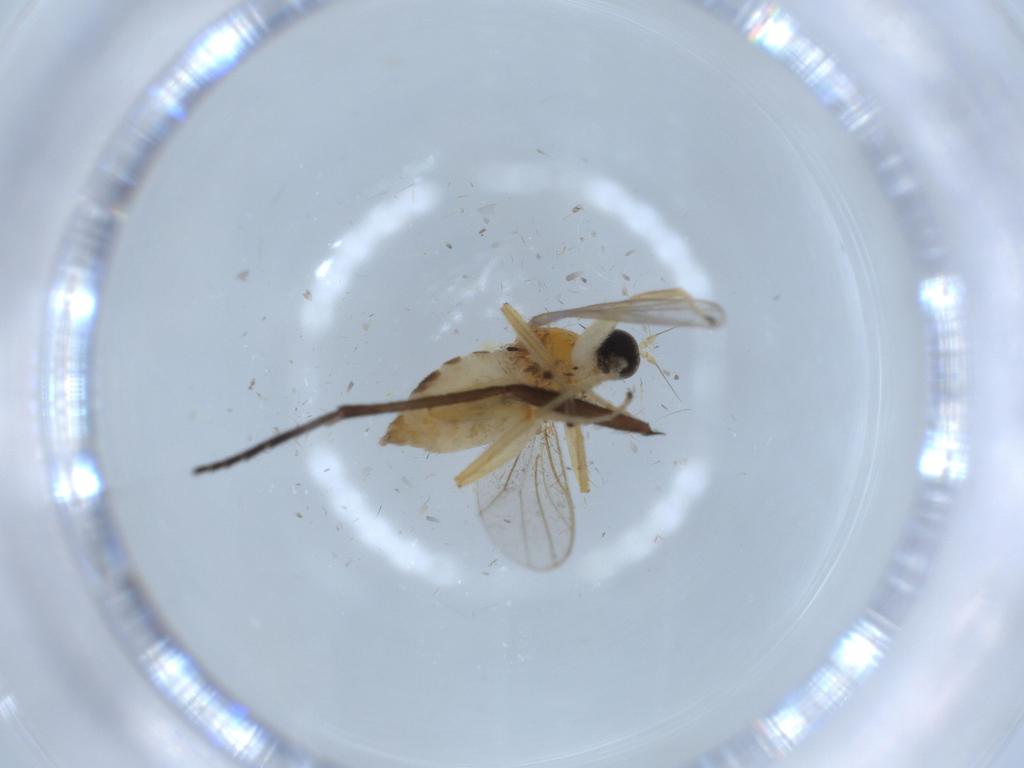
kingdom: Animalia
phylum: Arthropoda
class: Insecta
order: Diptera
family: Hybotidae
